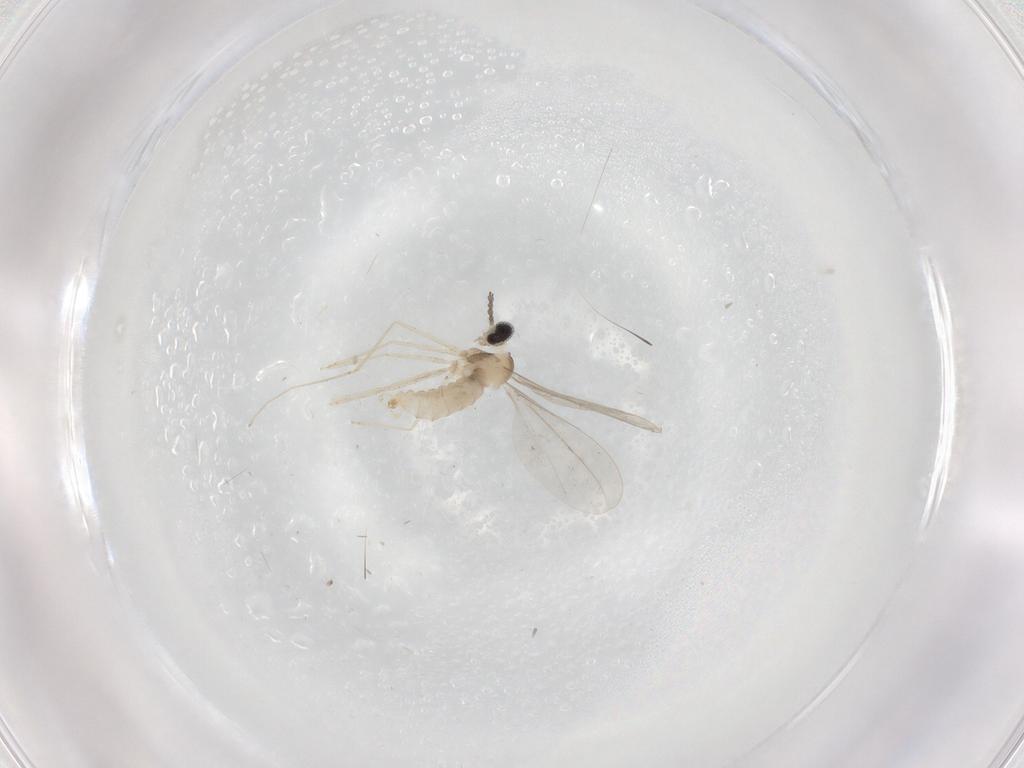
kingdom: Animalia
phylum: Arthropoda
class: Insecta
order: Diptera
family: Cecidomyiidae
